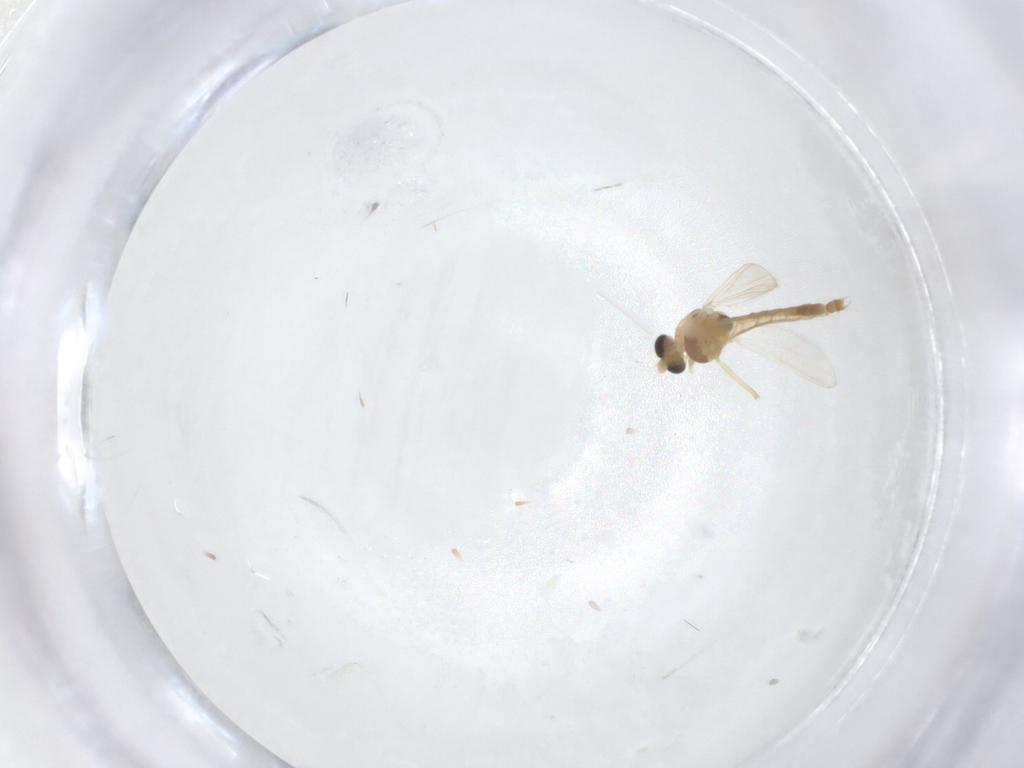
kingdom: Animalia
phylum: Arthropoda
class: Insecta
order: Diptera
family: Chironomidae
